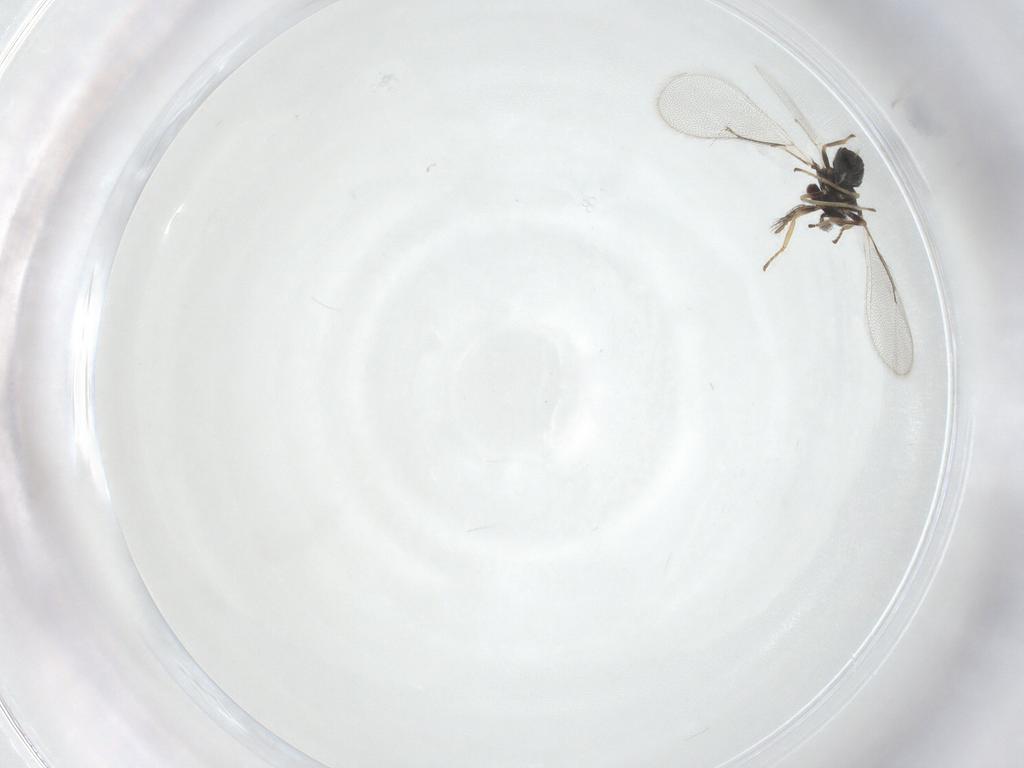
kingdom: Animalia
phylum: Arthropoda
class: Insecta
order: Hymenoptera
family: Eulophidae
